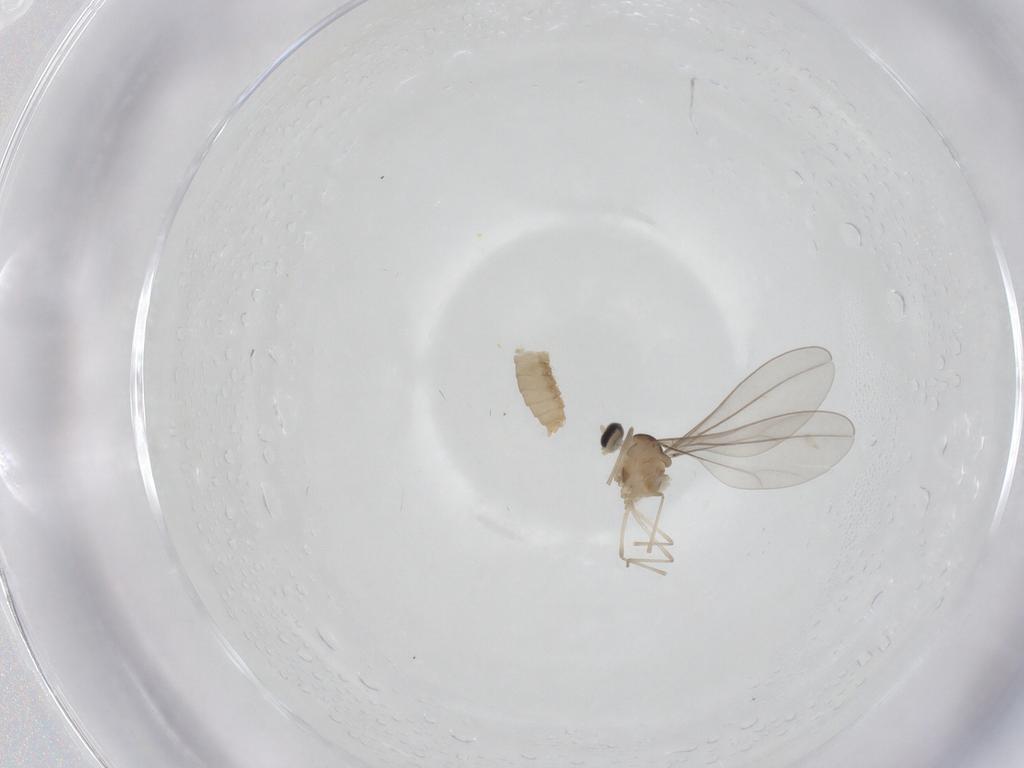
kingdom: Animalia
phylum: Arthropoda
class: Insecta
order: Diptera
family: Cecidomyiidae
